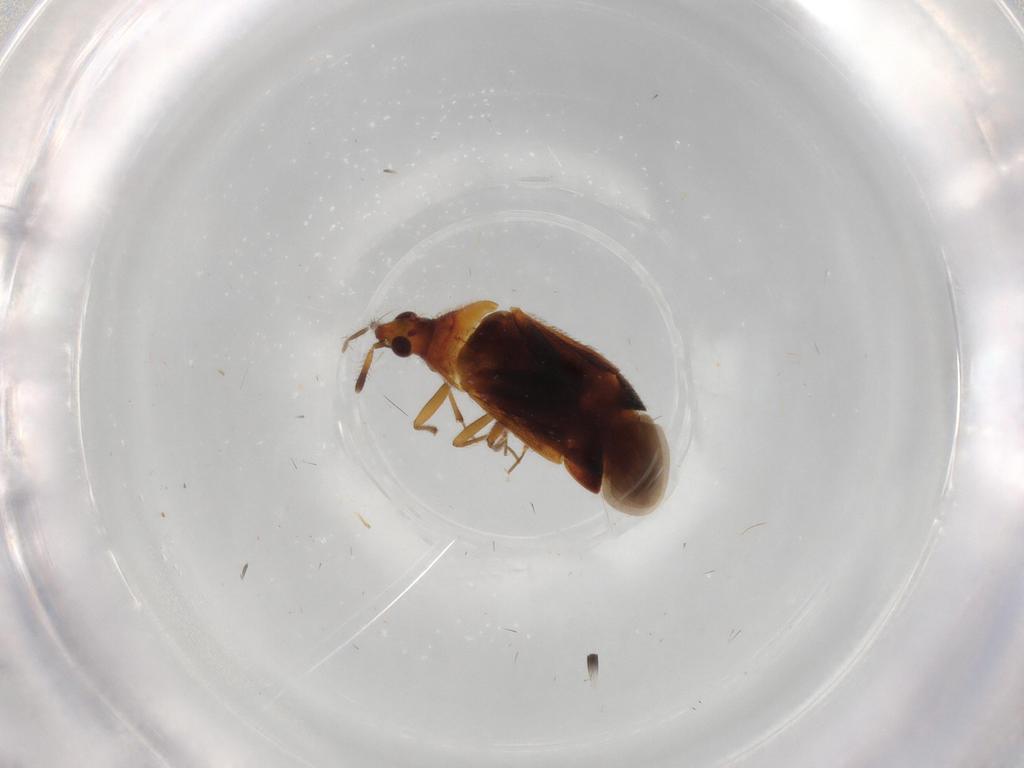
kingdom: Animalia
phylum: Arthropoda
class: Insecta
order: Hemiptera
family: Anthocoridae
